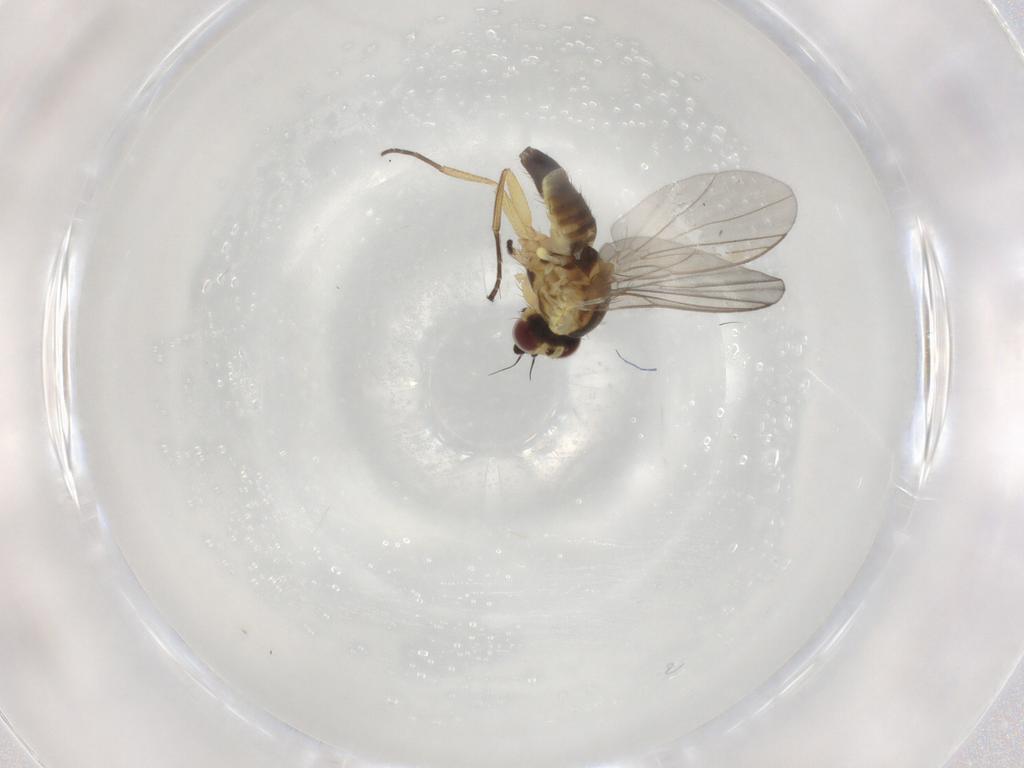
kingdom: Animalia
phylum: Arthropoda
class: Insecta
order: Diptera
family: Agromyzidae
